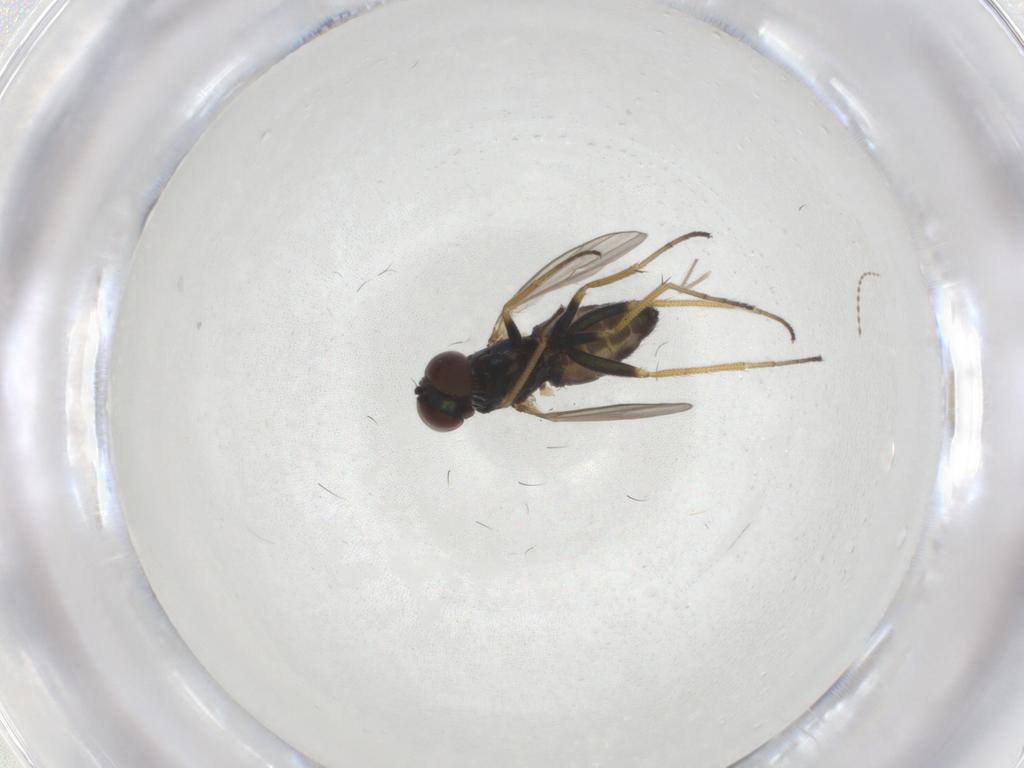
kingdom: Animalia
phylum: Arthropoda
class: Insecta
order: Diptera
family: Dolichopodidae
